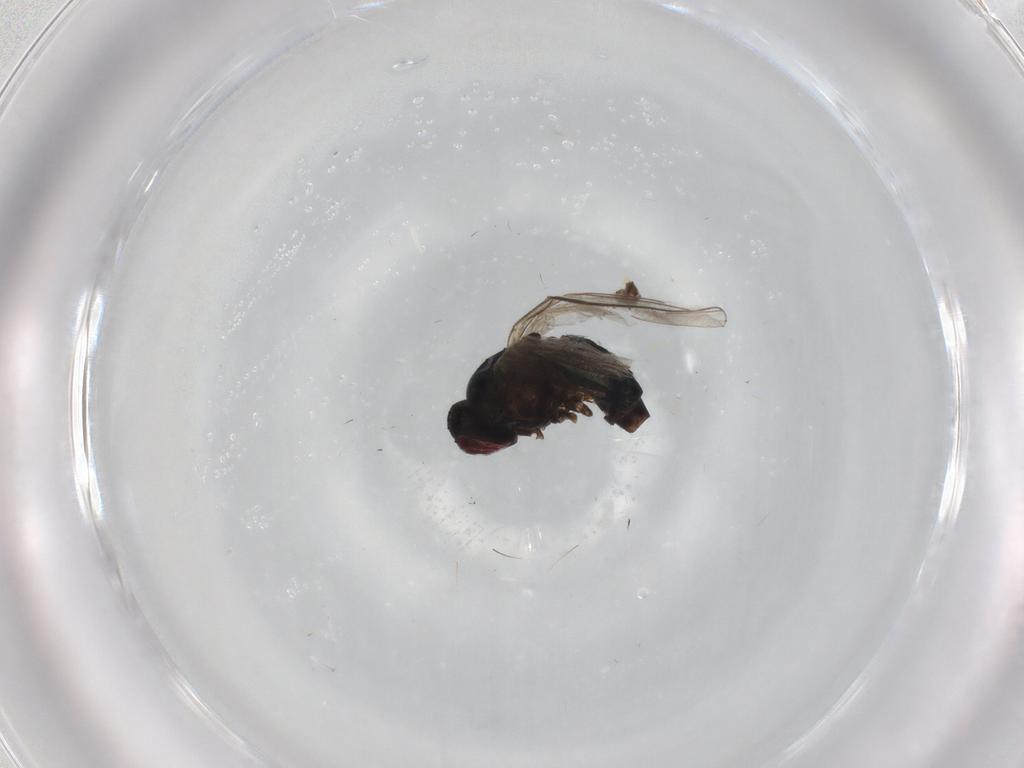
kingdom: Animalia
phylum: Arthropoda
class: Insecta
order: Diptera
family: Agromyzidae
